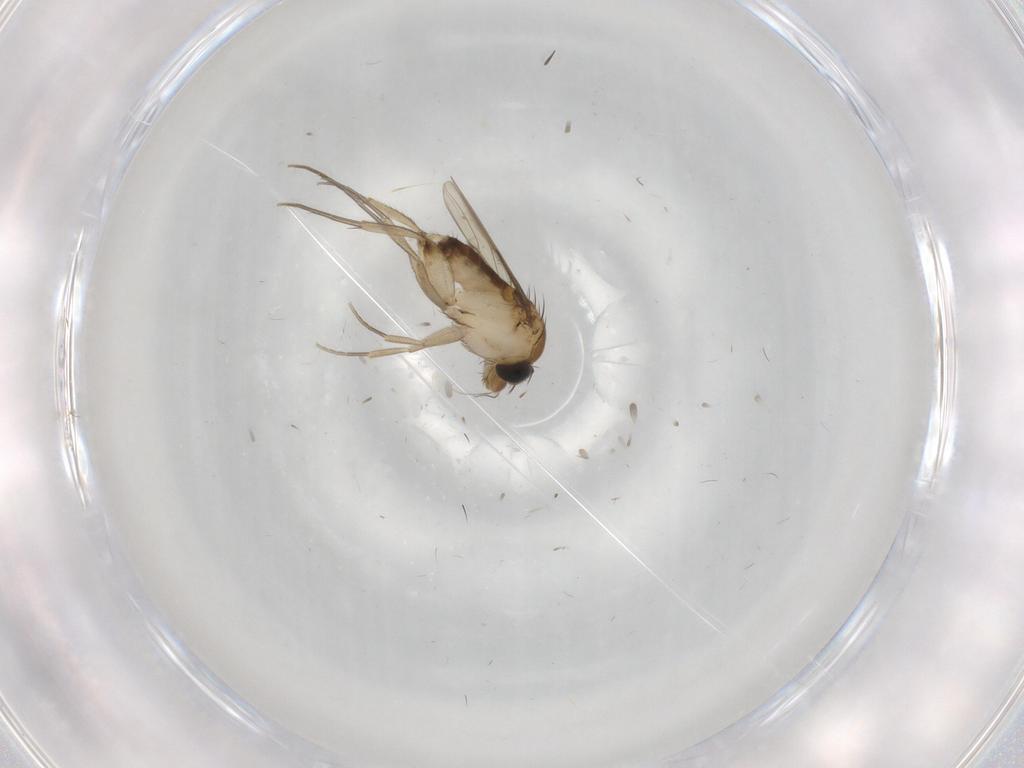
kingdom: Animalia
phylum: Arthropoda
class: Insecta
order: Diptera
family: Phoridae
